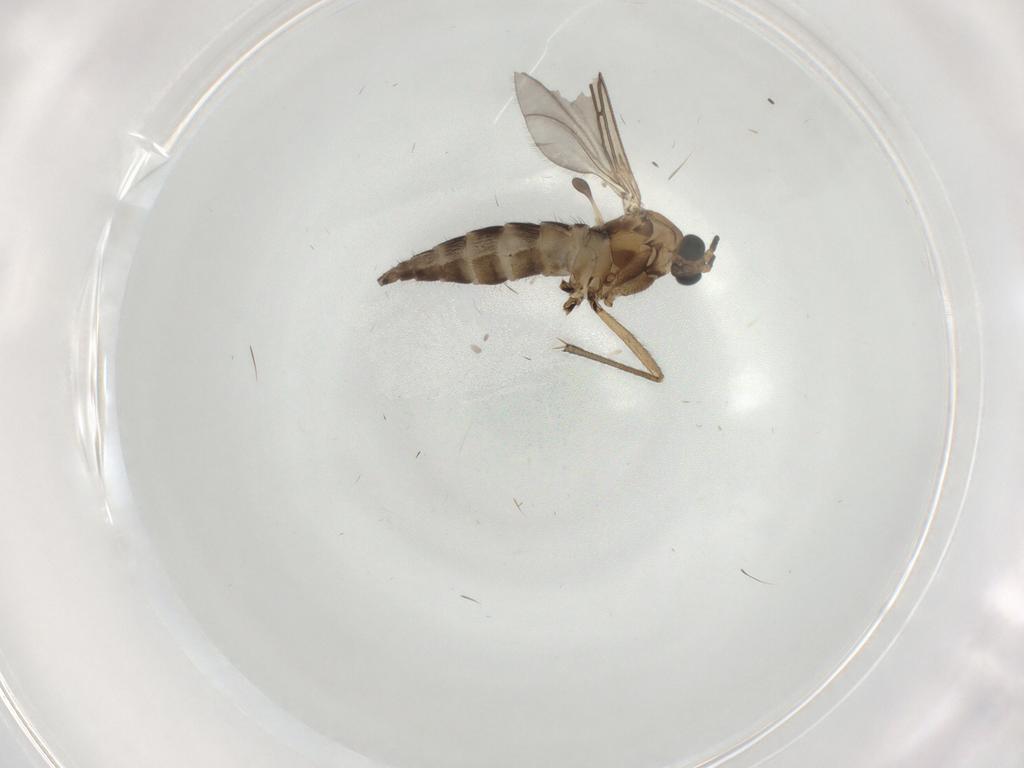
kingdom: Animalia
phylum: Arthropoda
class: Insecta
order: Diptera
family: Sciaridae
